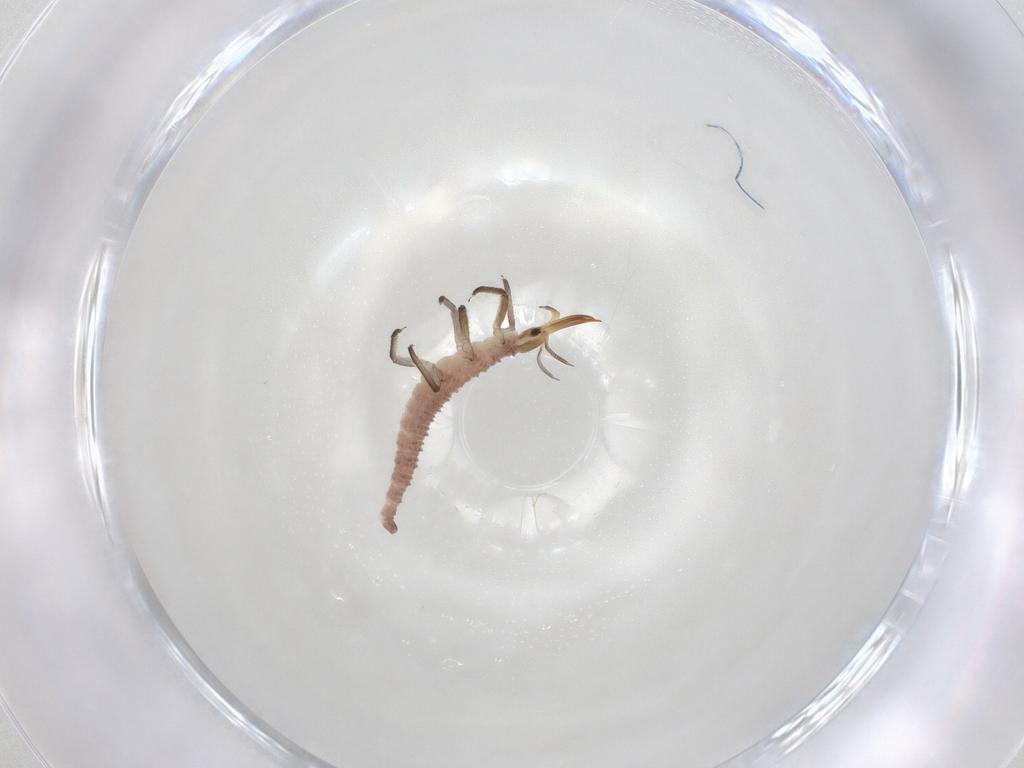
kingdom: Animalia
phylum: Arthropoda
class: Insecta
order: Neuroptera
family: Chrysopidae
